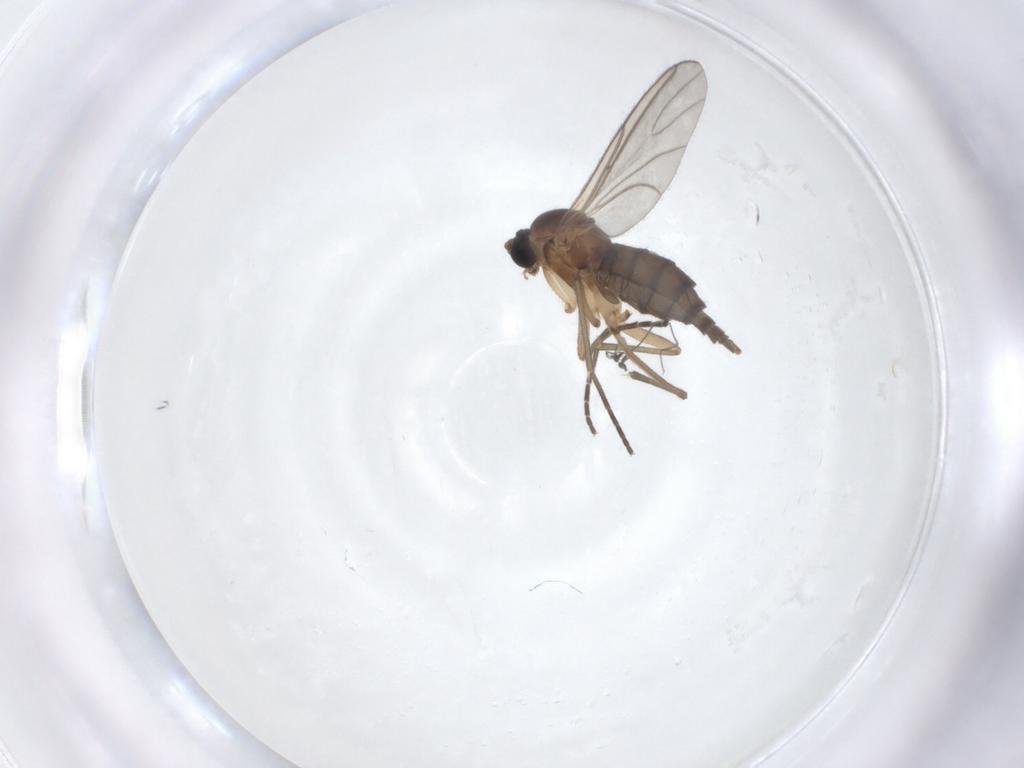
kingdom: Animalia
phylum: Arthropoda
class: Insecta
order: Diptera
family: Sciaridae
